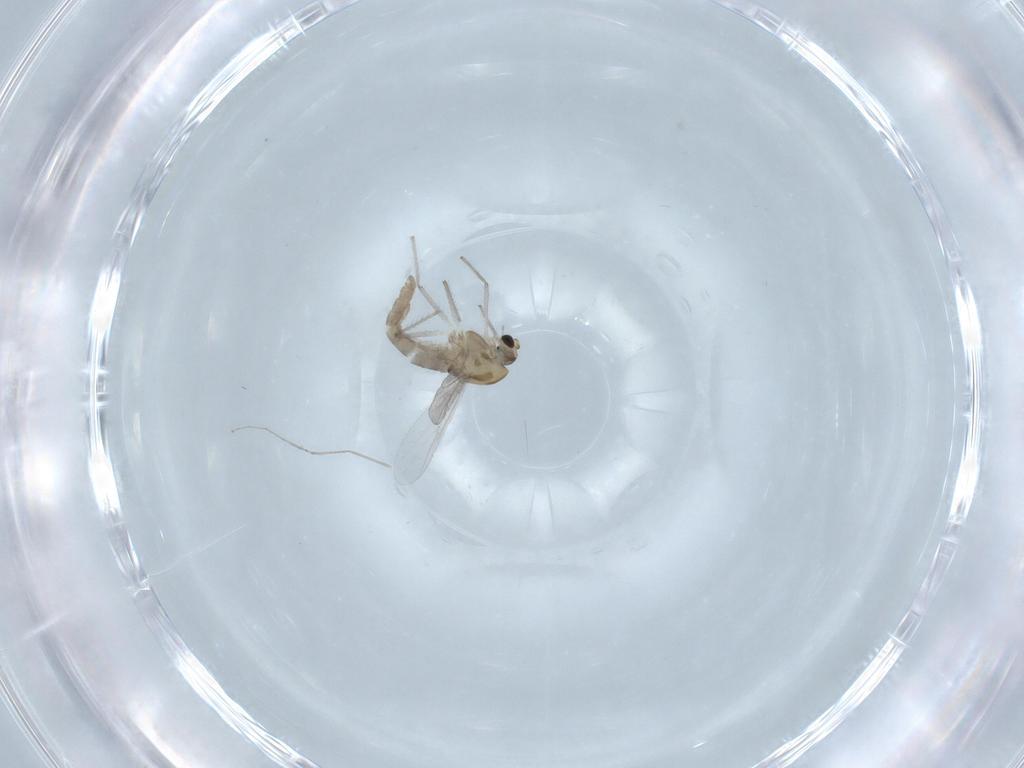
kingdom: Animalia
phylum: Arthropoda
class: Insecta
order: Diptera
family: Chironomidae
